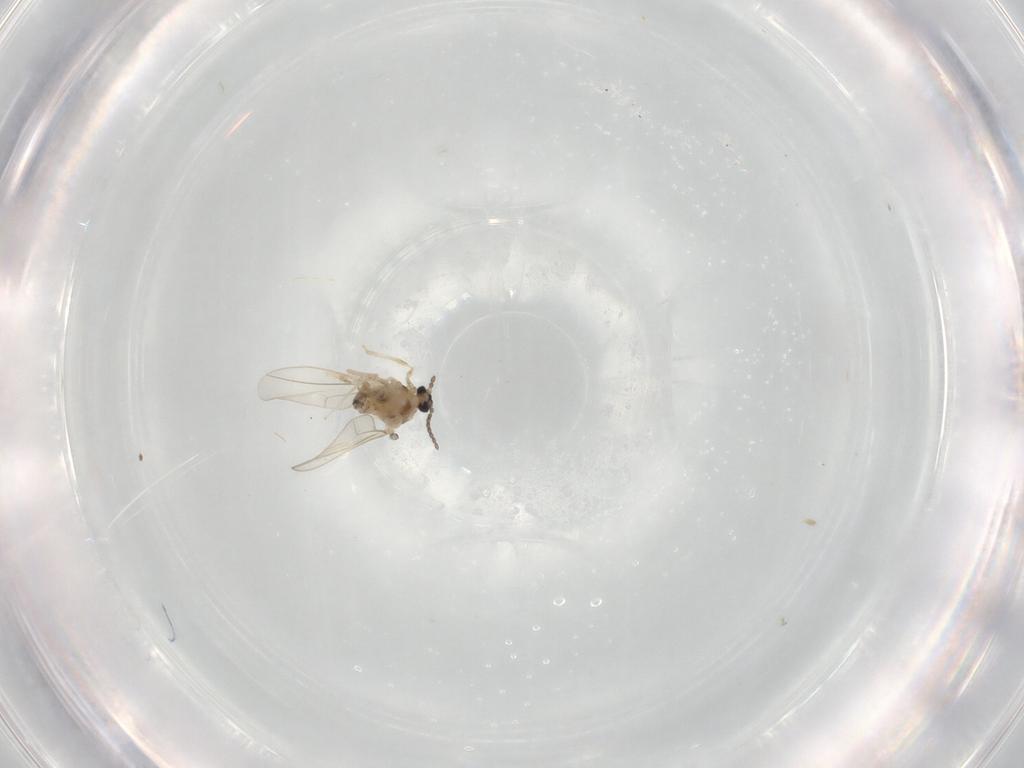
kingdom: Animalia
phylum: Arthropoda
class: Insecta
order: Diptera
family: Cecidomyiidae
